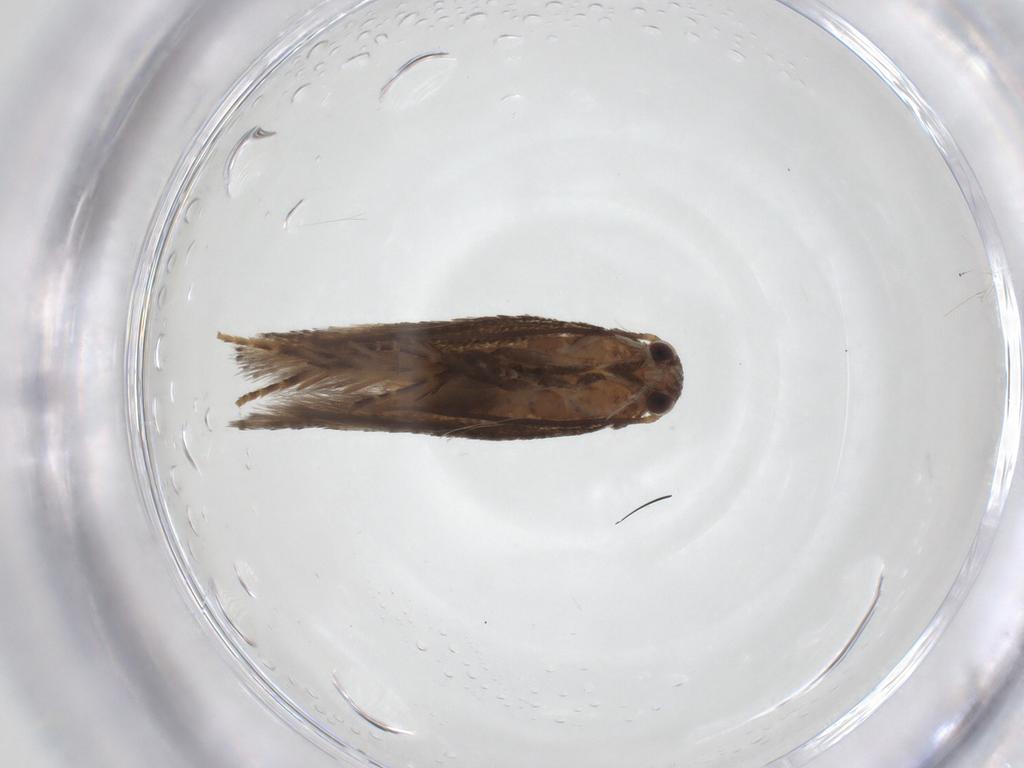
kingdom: Animalia
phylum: Arthropoda
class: Insecta
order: Lepidoptera
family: Elachistidae
